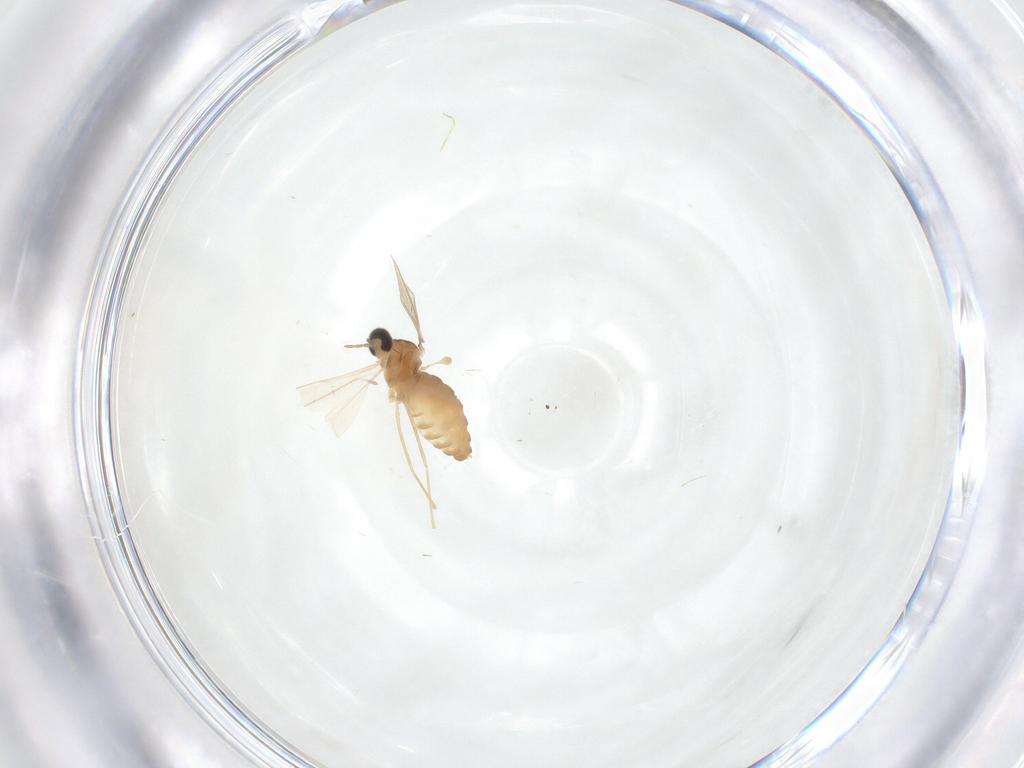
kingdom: Animalia
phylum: Arthropoda
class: Insecta
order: Diptera
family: Cecidomyiidae
